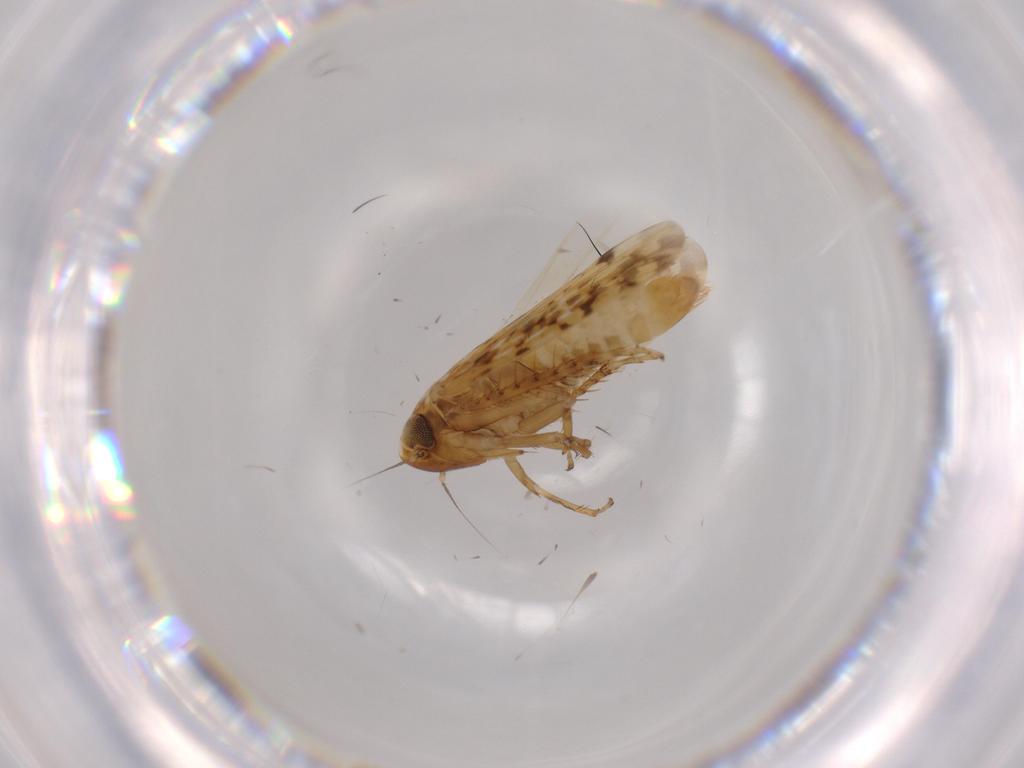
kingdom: Animalia
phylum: Arthropoda
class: Insecta
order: Hemiptera
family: Cicadellidae
